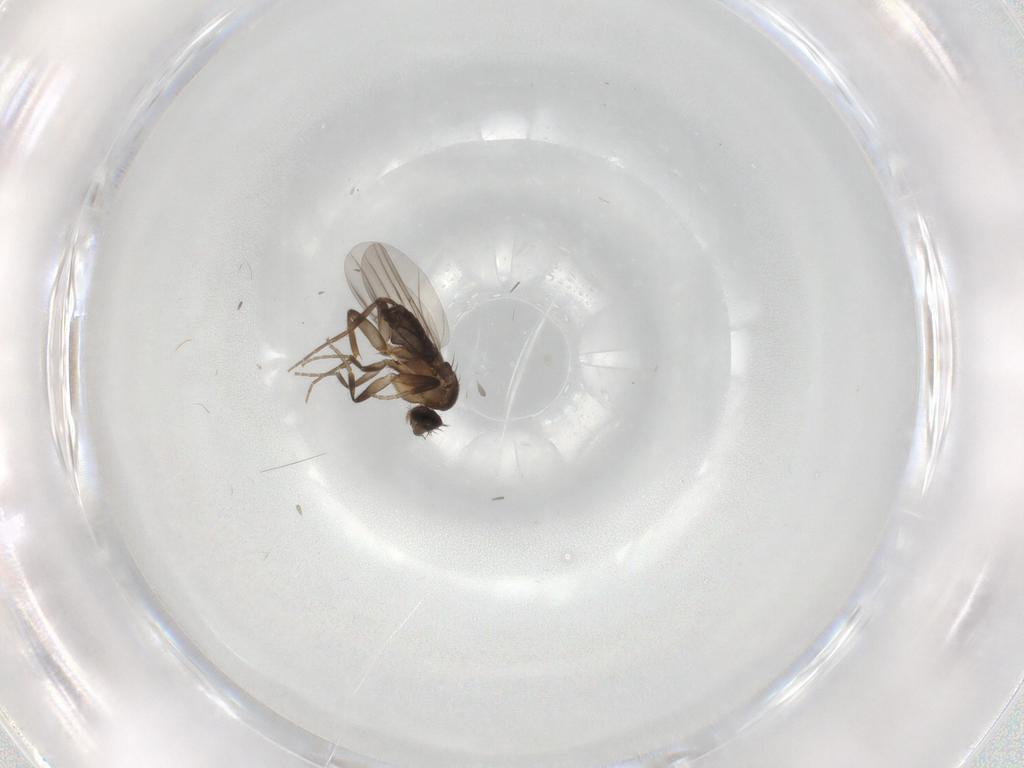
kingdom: Animalia
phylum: Arthropoda
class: Insecta
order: Diptera
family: Phoridae
